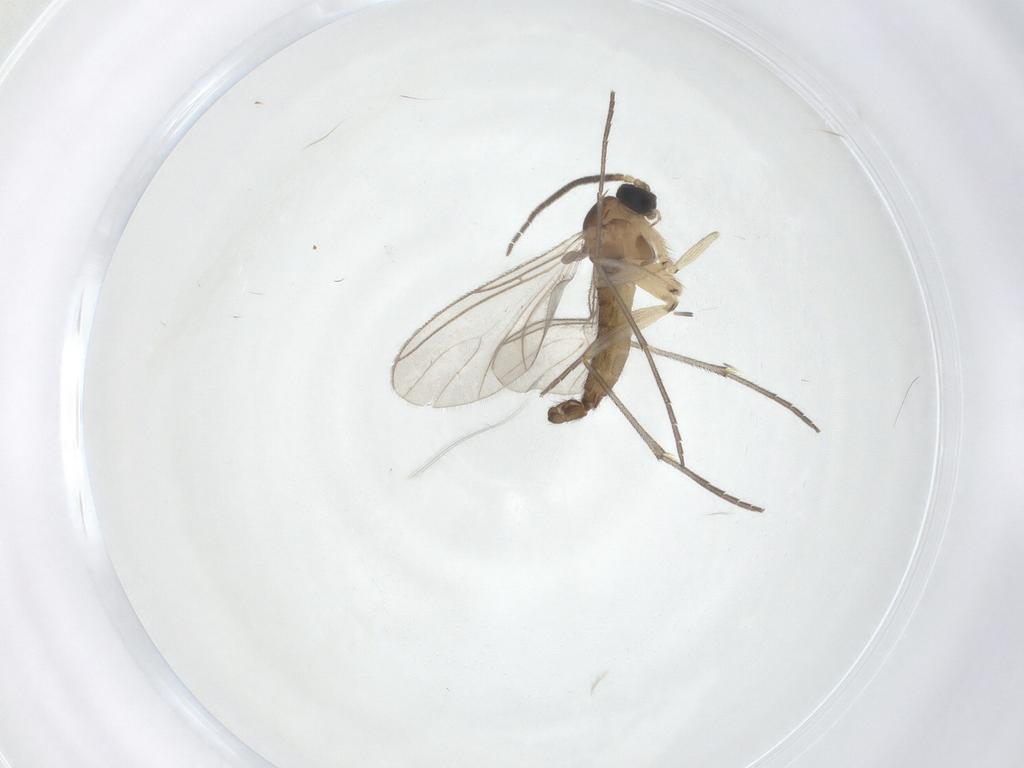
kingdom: Animalia
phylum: Arthropoda
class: Insecta
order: Diptera
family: Sciaridae
